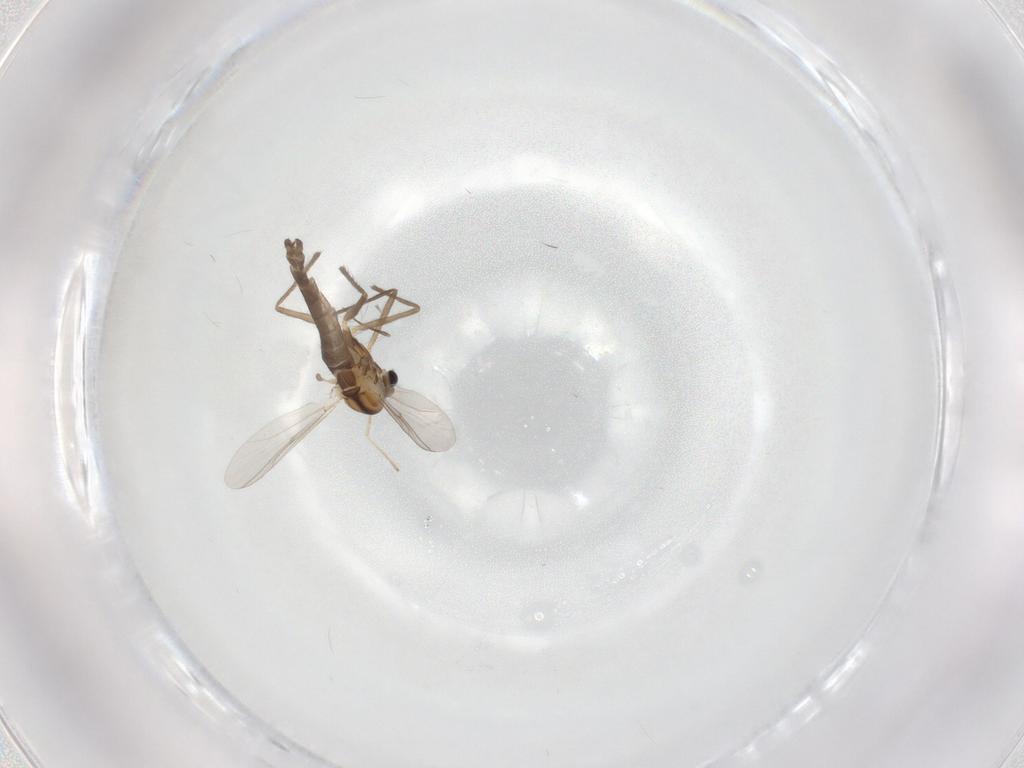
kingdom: Animalia
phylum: Arthropoda
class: Insecta
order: Diptera
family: Chironomidae
